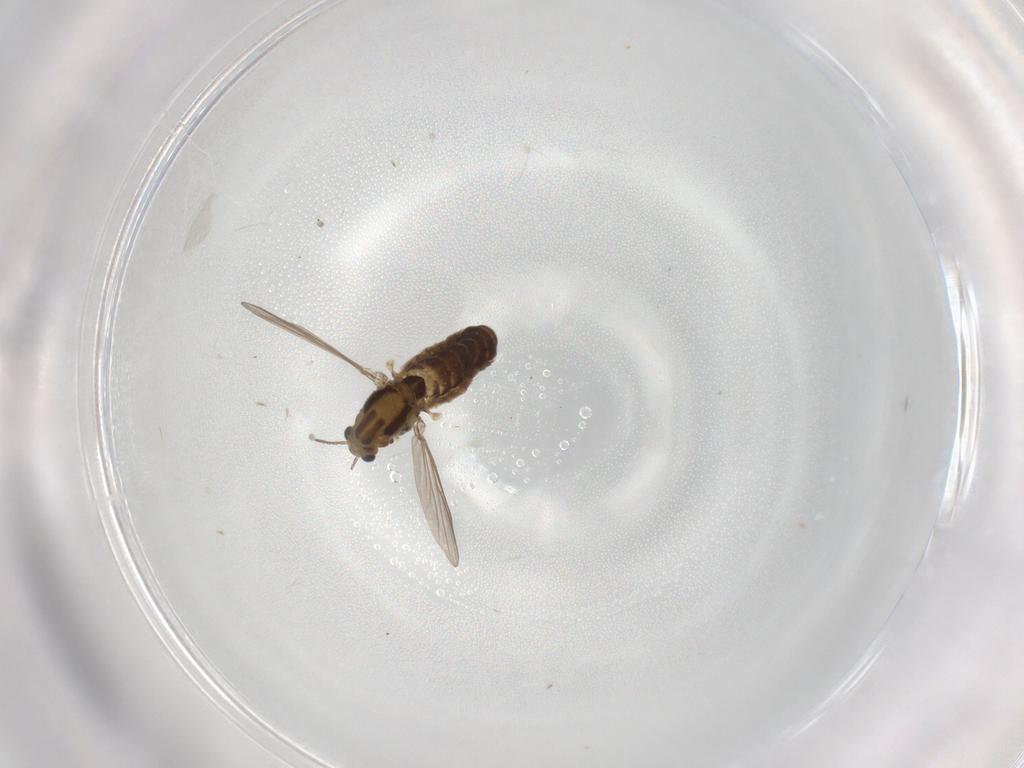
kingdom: Animalia
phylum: Arthropoda
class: Insecta
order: Diptera
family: Chironomidae
